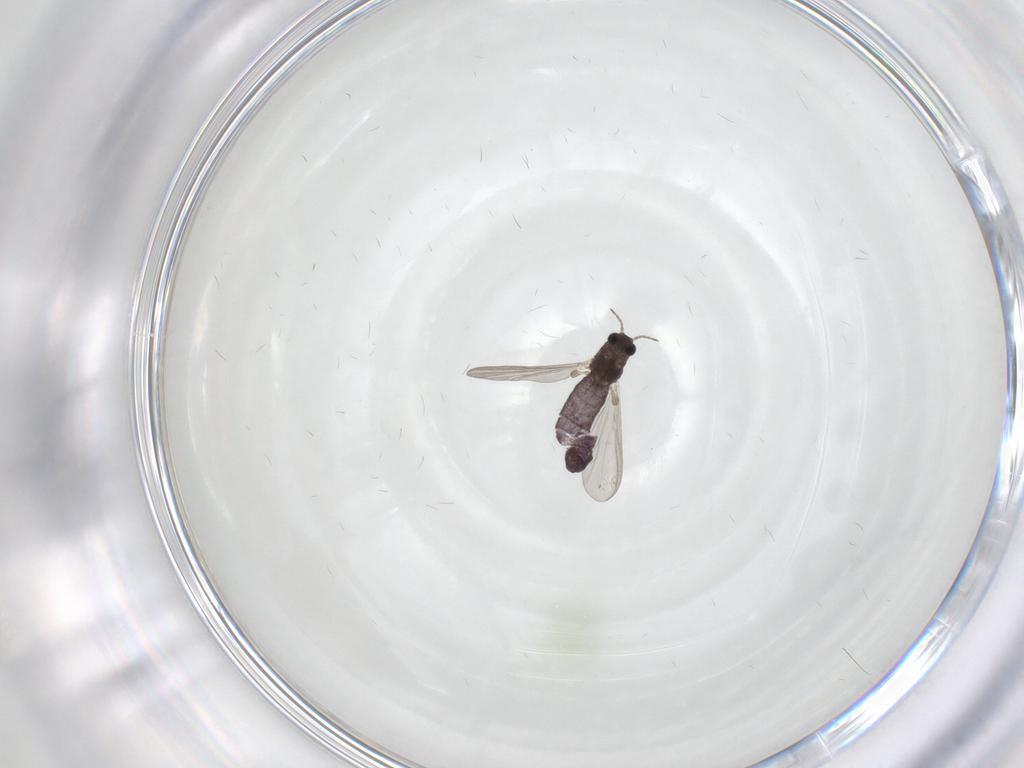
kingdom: Animalia
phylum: Arthropoda
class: Insecta
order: Diptera
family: Chironomidae
